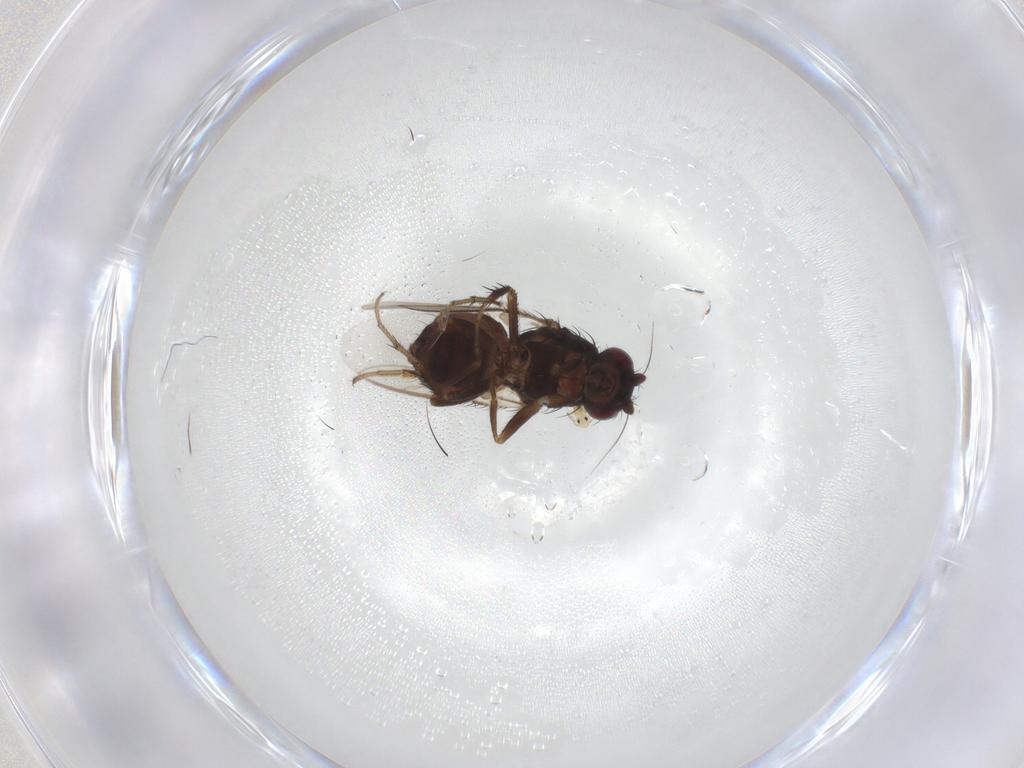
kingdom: Animalia
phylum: Arthropoda
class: Insecta
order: Diptera
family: Sphaeroceridae
